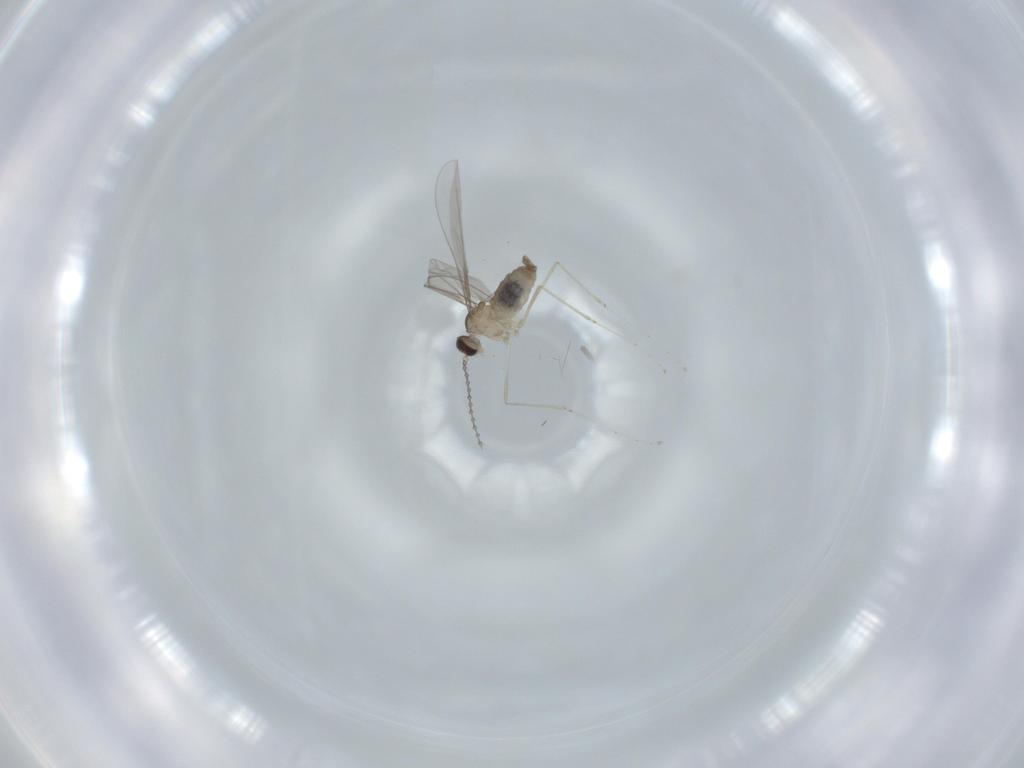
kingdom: Animalia
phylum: Arthropoda
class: Insecta
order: Diptera
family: Cecidomyiidae
